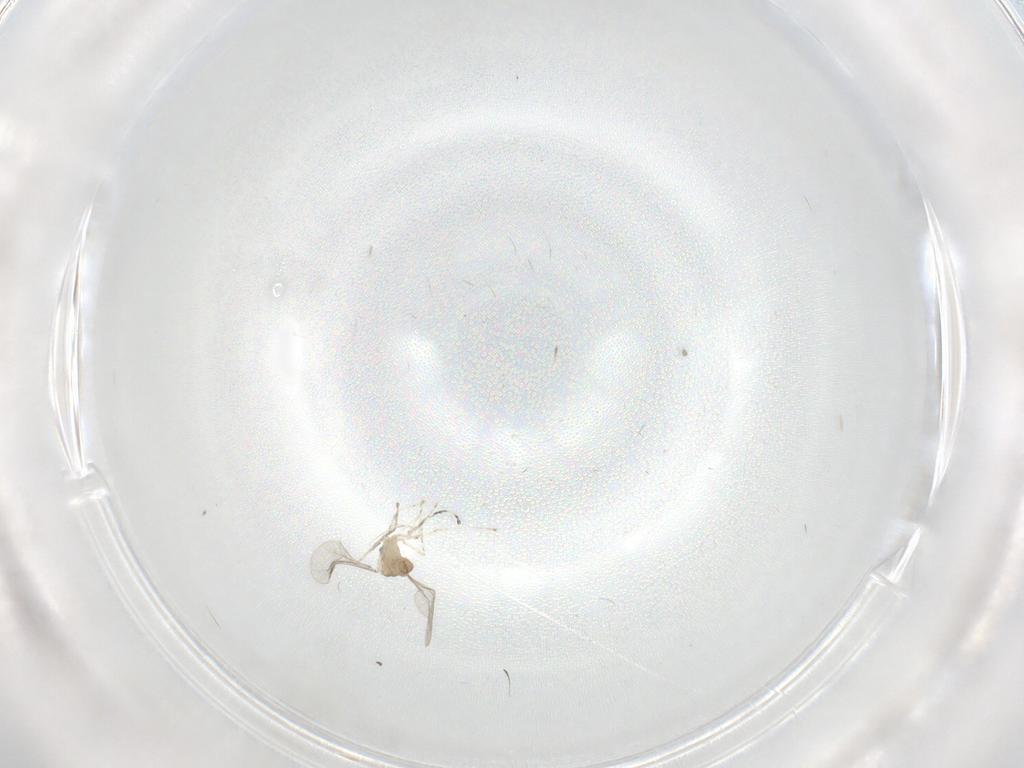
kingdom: Animalia
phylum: Arthropoda
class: Insecta
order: Diptera
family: Cecidomyiidae
